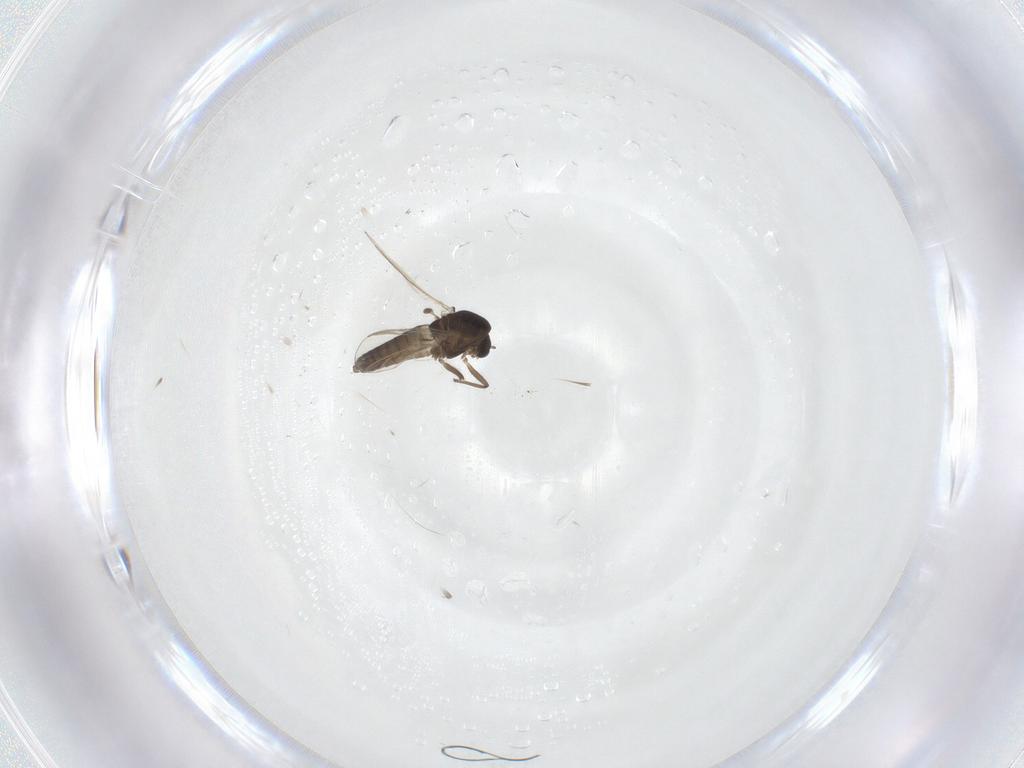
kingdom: Animalia
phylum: Arthropoda
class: Insecta
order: Diptera
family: Chironomidae
